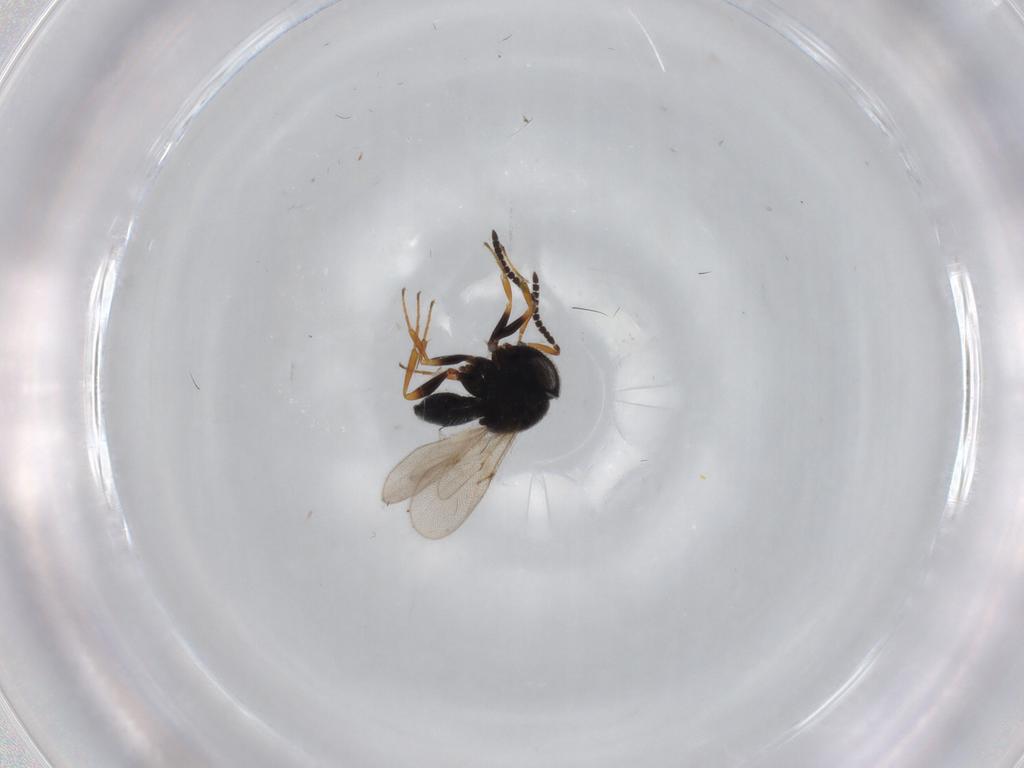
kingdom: Animalia
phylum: Arthropoda
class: Insecta
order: Hymenoptera
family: Scelionidae
